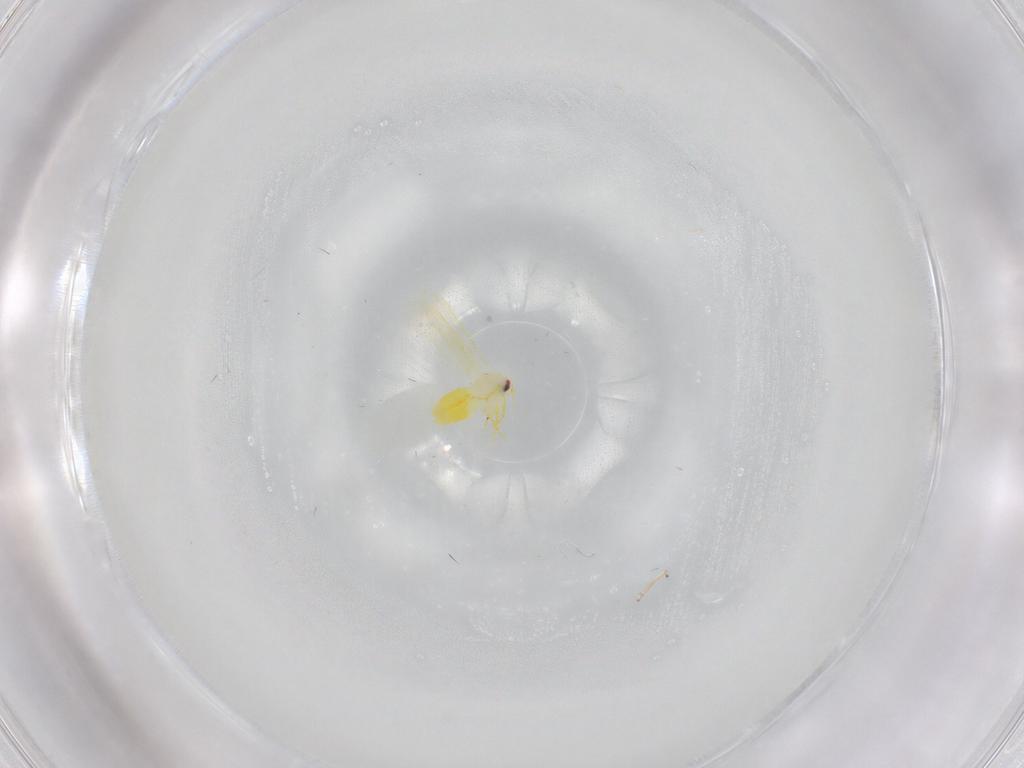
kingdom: Animalia
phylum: Arthropoda
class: Insecta
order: Hemiptera
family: Aleyrodidae
